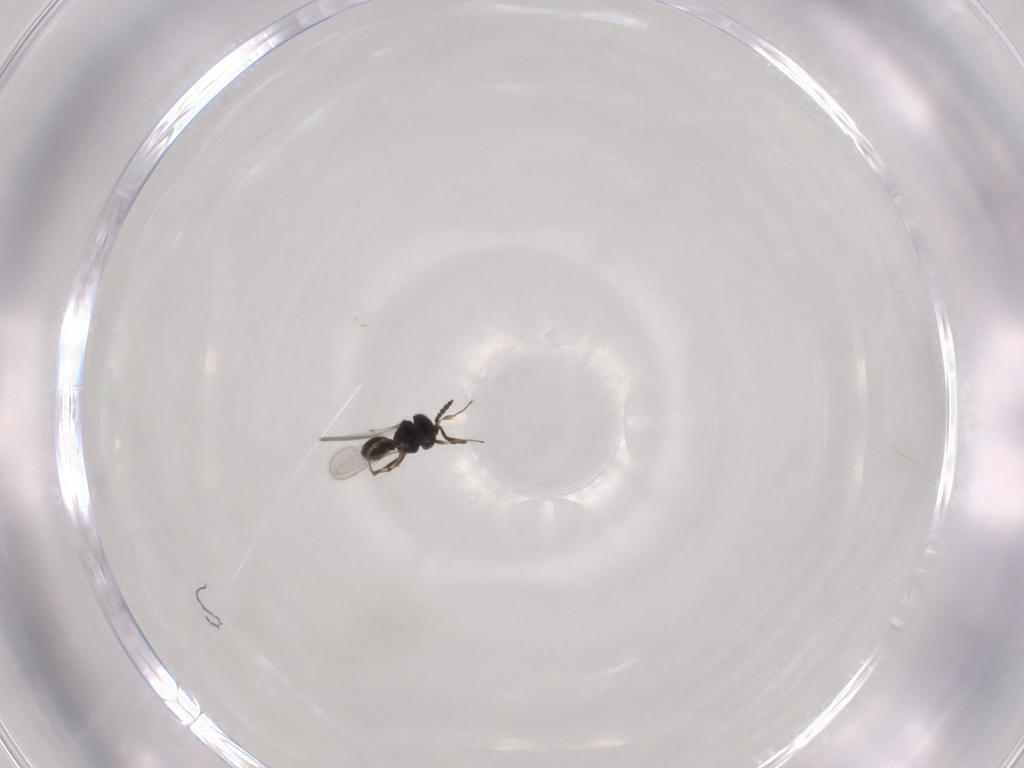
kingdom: Animalia
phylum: Arthropoda
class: Insecta
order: Hymenoptera
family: Scelionidae
